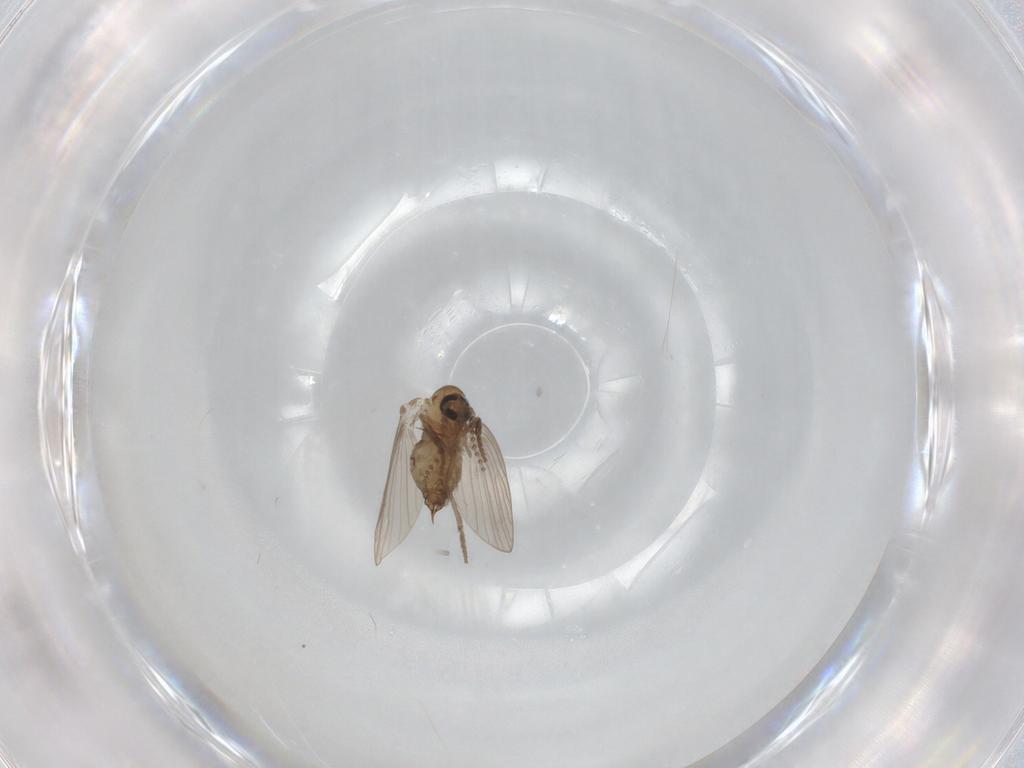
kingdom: Animalia
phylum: Arthropoda
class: Insecta
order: Diptera
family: Psychodidae
